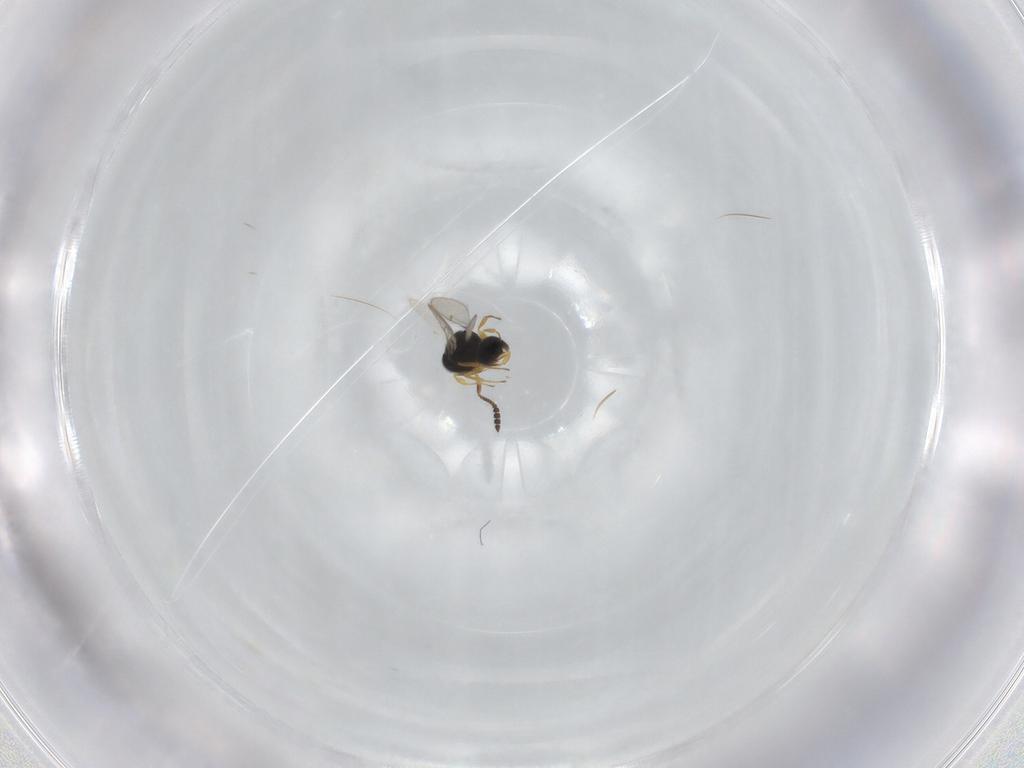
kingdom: Animalia
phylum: Arthropoda
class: Insecta
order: Hymenoptera
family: Scelionidae
